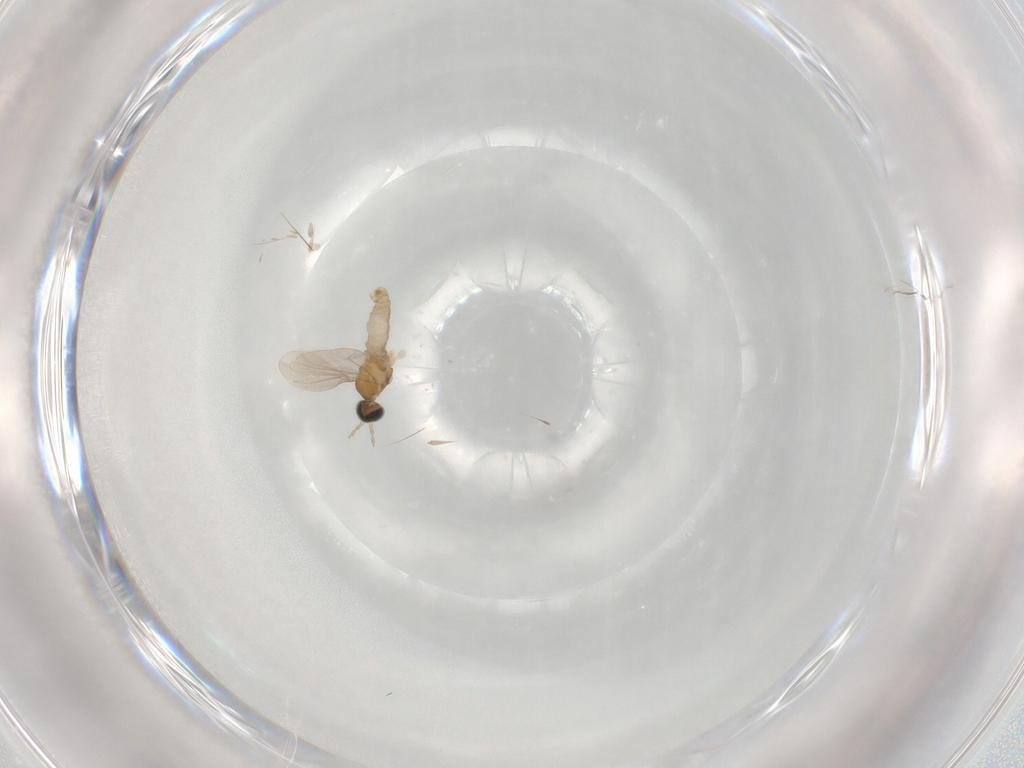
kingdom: Animalia
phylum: Arthropoda
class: Insecta
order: Diptera
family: Cecidomyiidae
